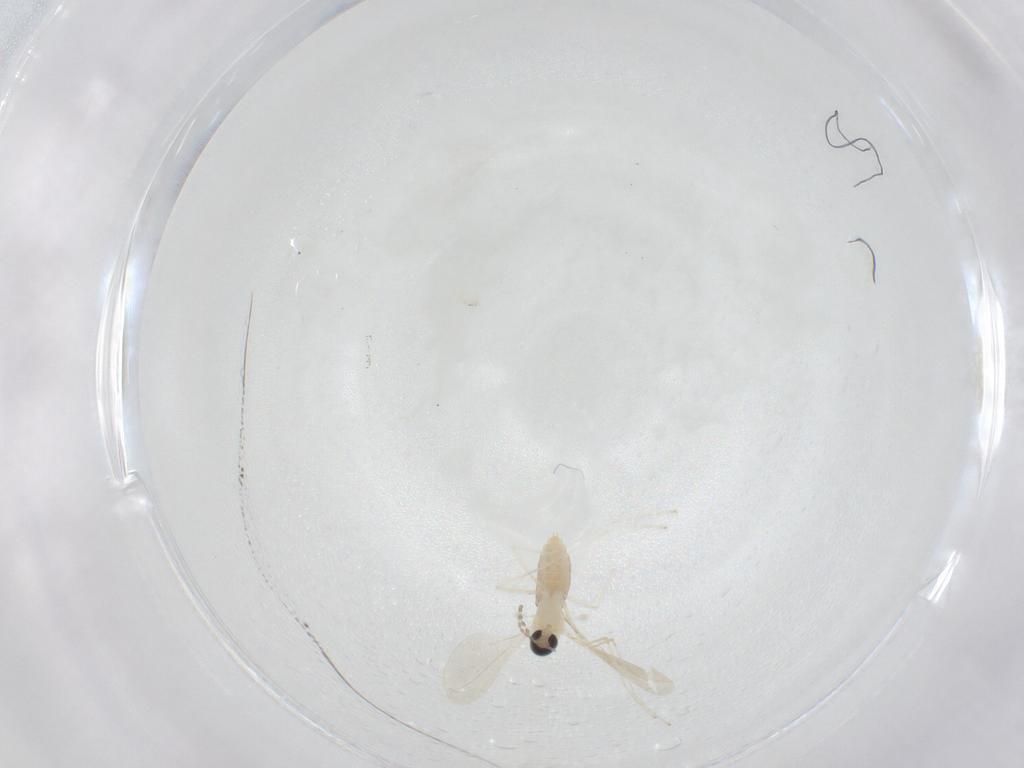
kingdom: Animalia
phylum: Arthropoda
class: Insecta
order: Diptera
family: Cecidomyiidae
